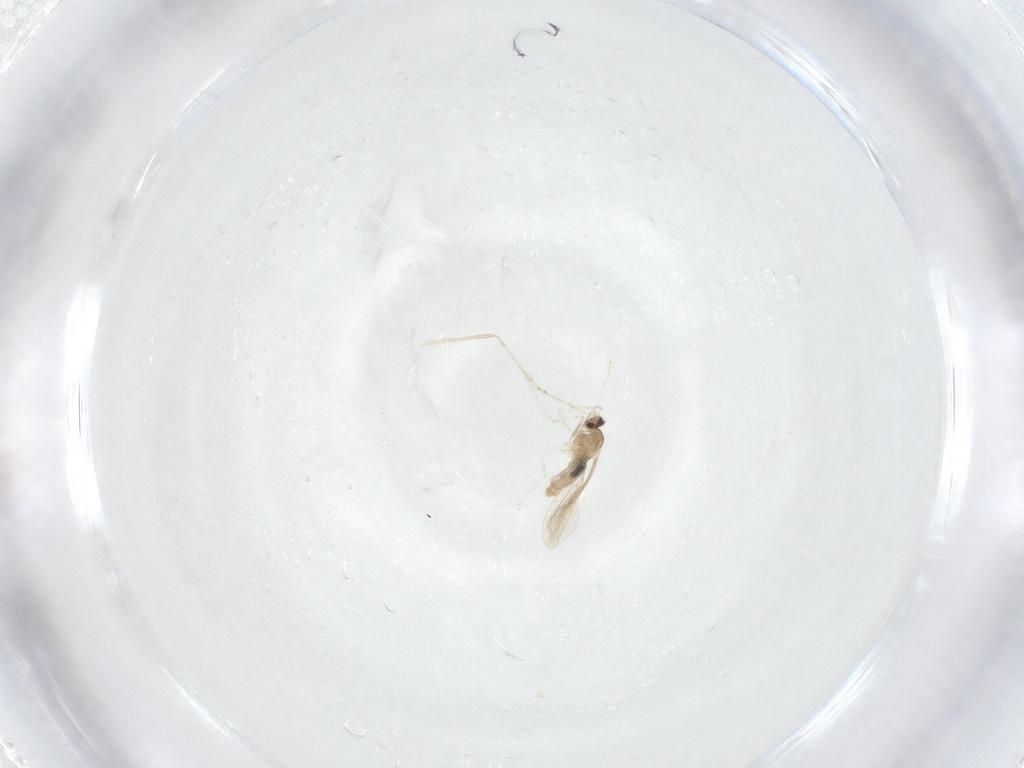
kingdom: Animalia
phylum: Arthropoda
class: Insecta
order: Diptera
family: Cecidomyiidae
